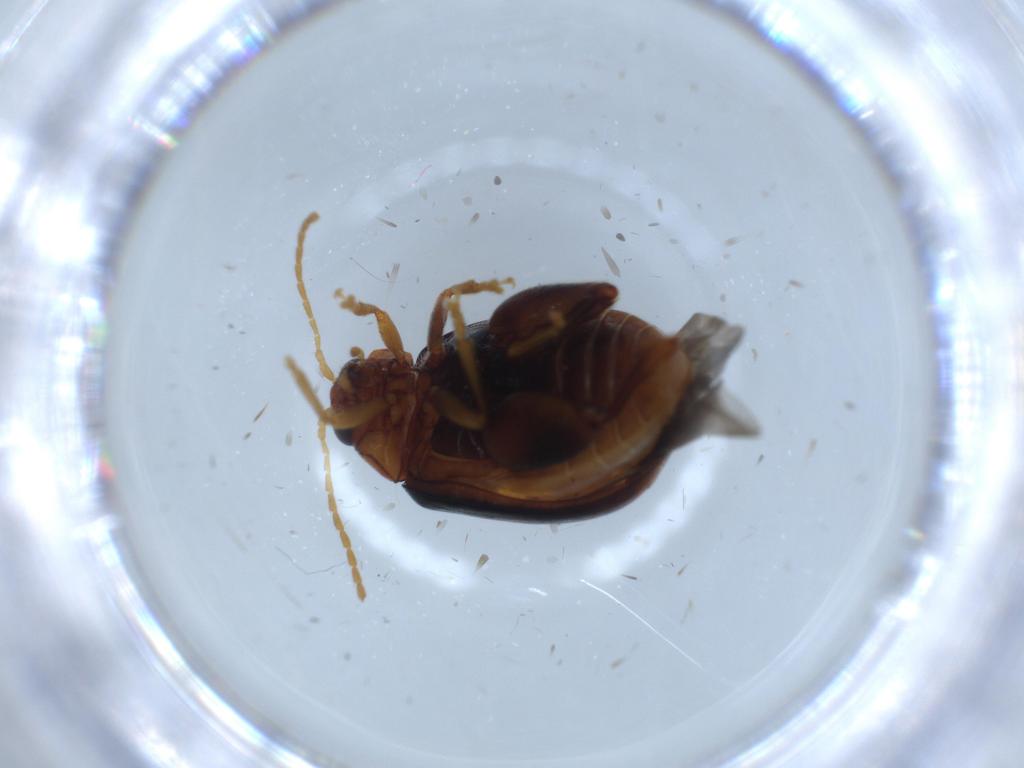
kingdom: Animalia
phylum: Arthropoda
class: Insecta
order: Coleoptera
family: Chrysomelidae
